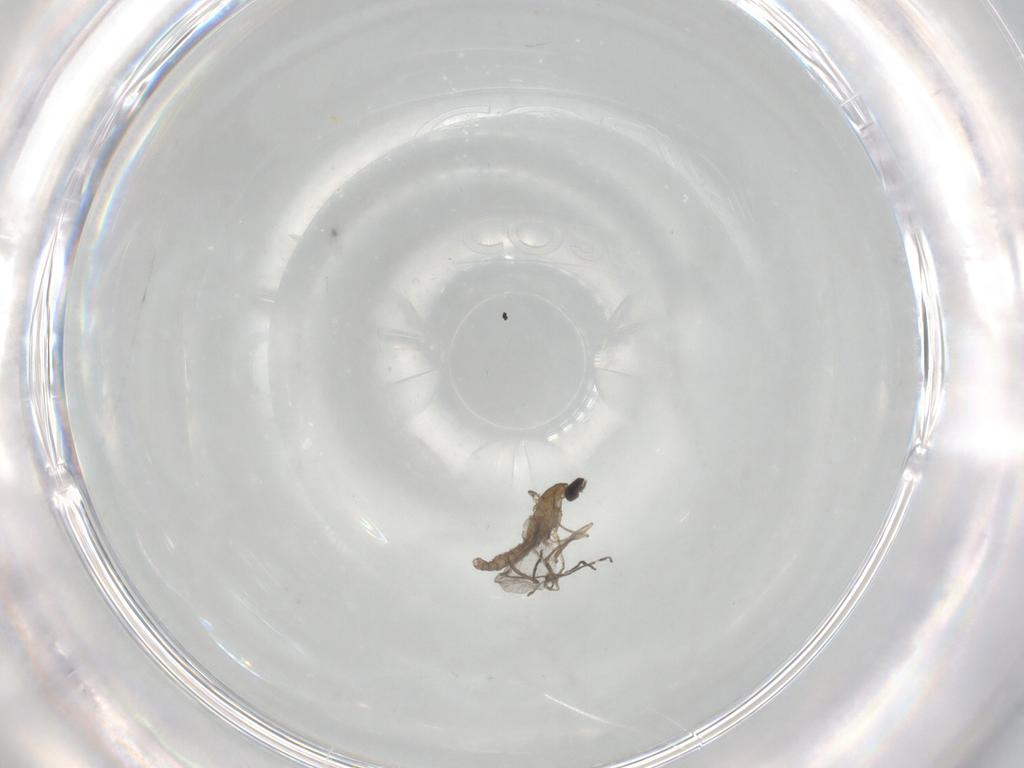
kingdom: Animalia
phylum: Arthropoda
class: Insecta
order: Diptera
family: Cecidomyiidae
